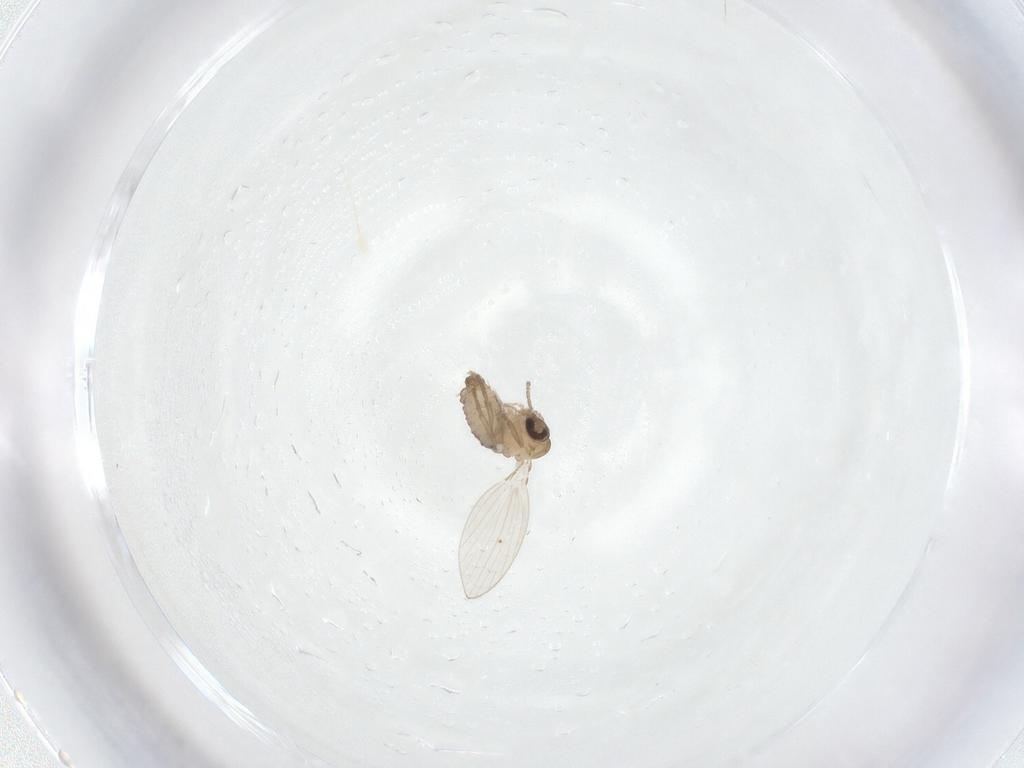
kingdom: Animalia
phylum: Arthropoda
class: Insecta
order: Diptera
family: Psychodidae
